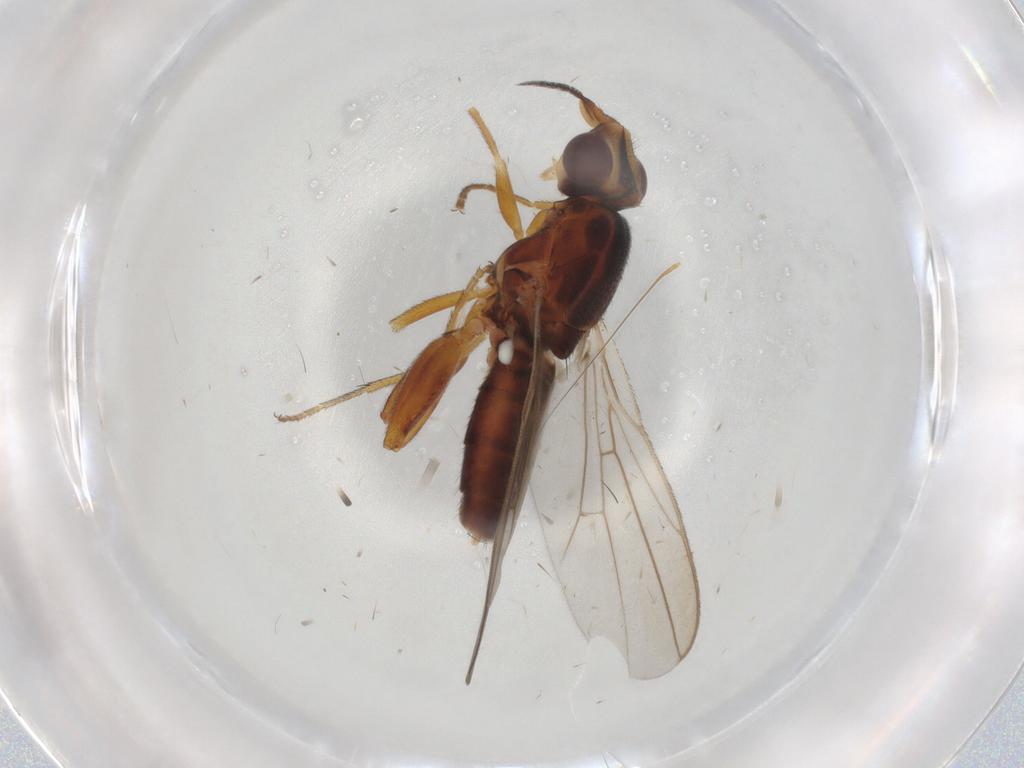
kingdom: Animalia
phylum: Arthropoda
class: Insecta
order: Diptera
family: Chloropidae
